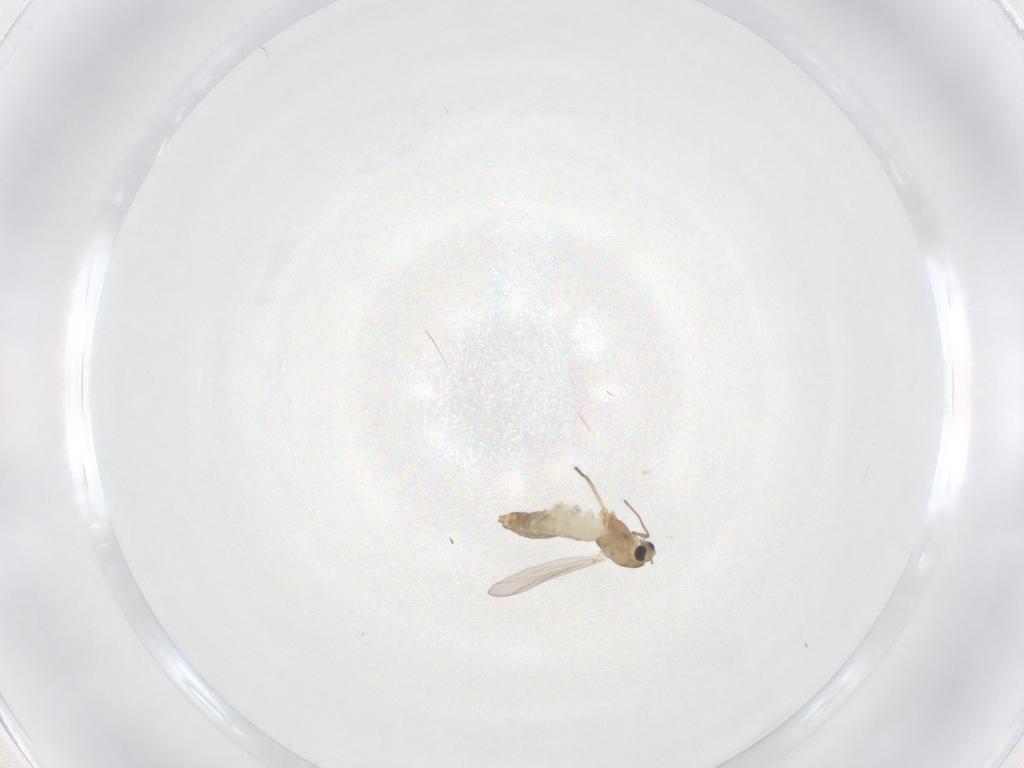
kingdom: Animalia
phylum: Arthropoda
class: Insecta
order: Diptera
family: Chironomidae
